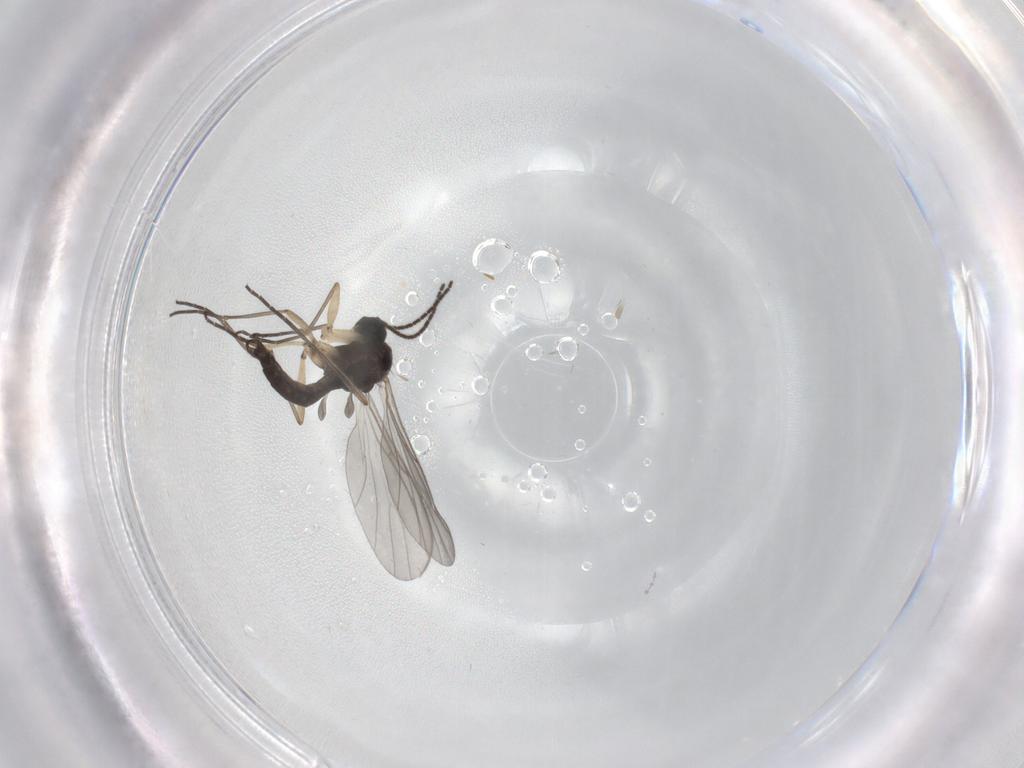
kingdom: Animalia
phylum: Arthropoda
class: Insecta
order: Diptera
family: Sciaridae
